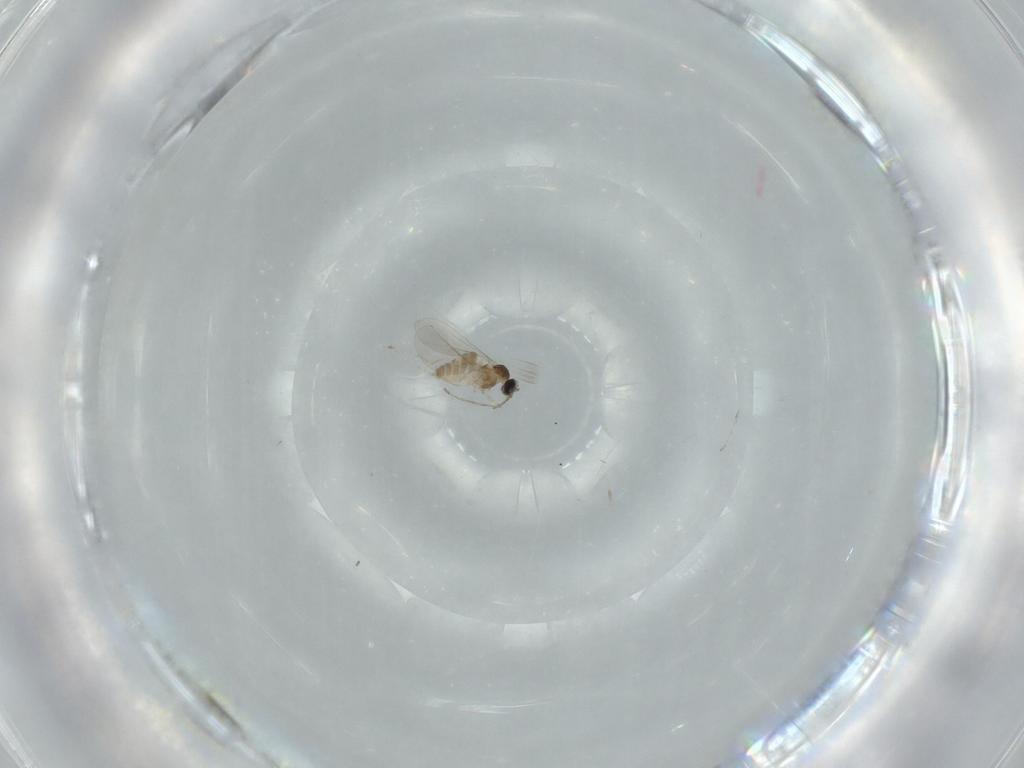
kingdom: Animalia
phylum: Arthropoda
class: Insecta
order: Diptera
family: Cecidomyiidae
